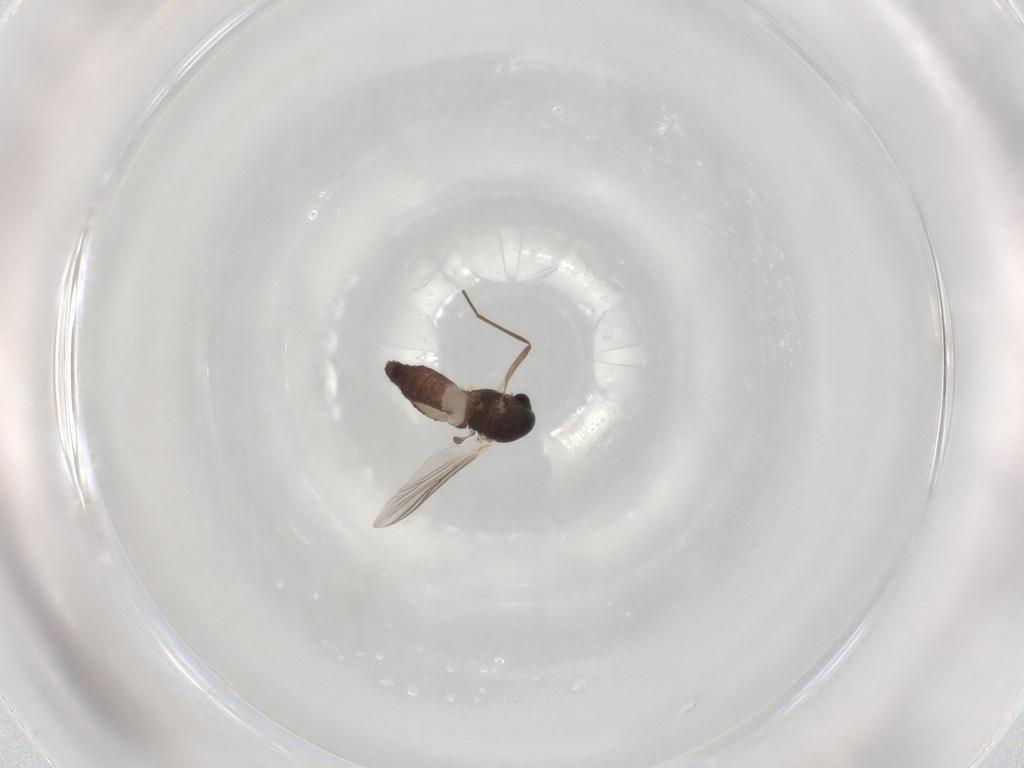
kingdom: Animalia
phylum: Arthropoda
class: Insecta
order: Diptera
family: Chironomidae
